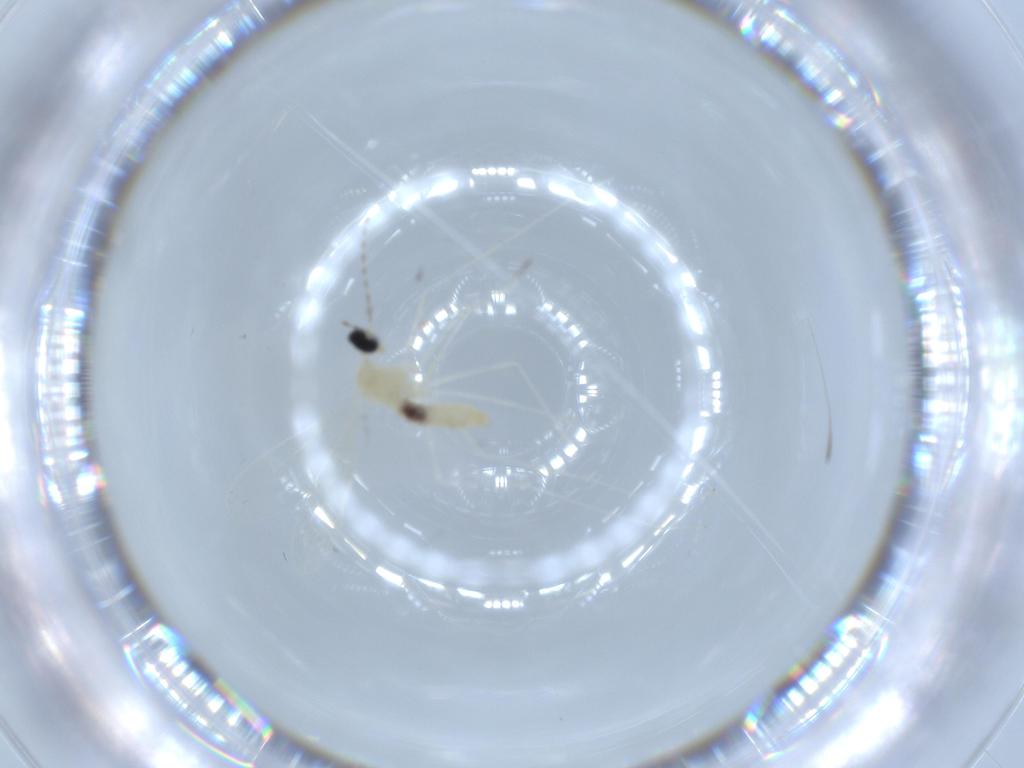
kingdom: Animalia
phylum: Arthropoda
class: Insecta
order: Diptera
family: Cecidomyiidae
